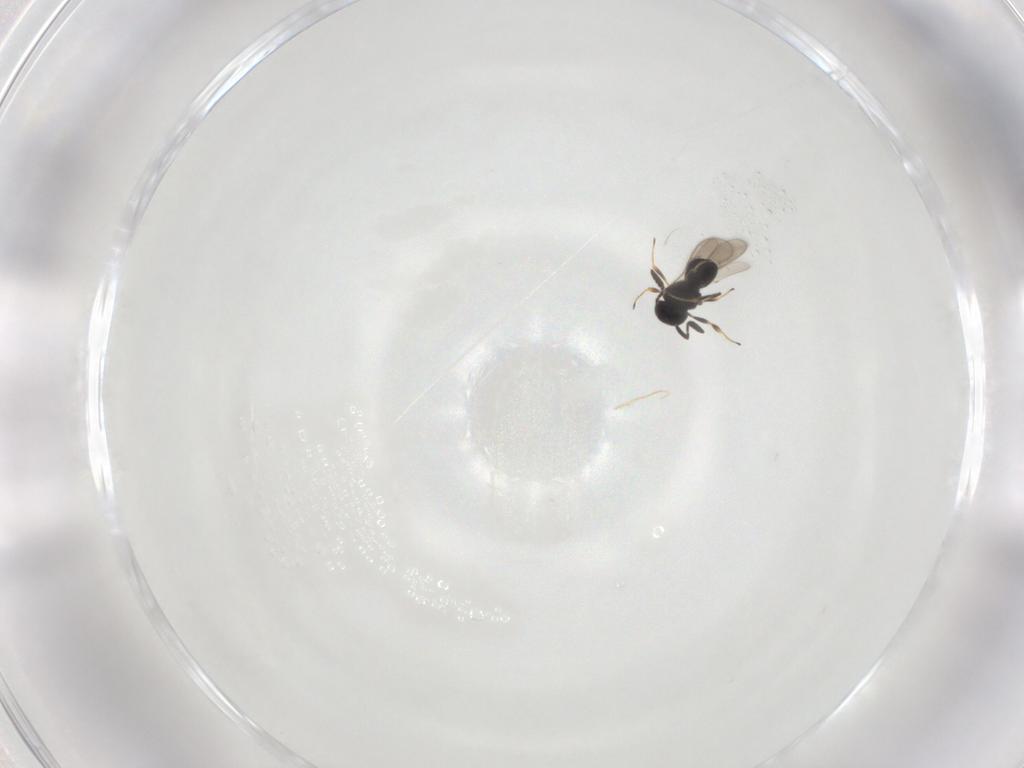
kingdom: Animalia
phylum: Arthropoda
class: Insecta
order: Hymenoptera
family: Scelionidae
